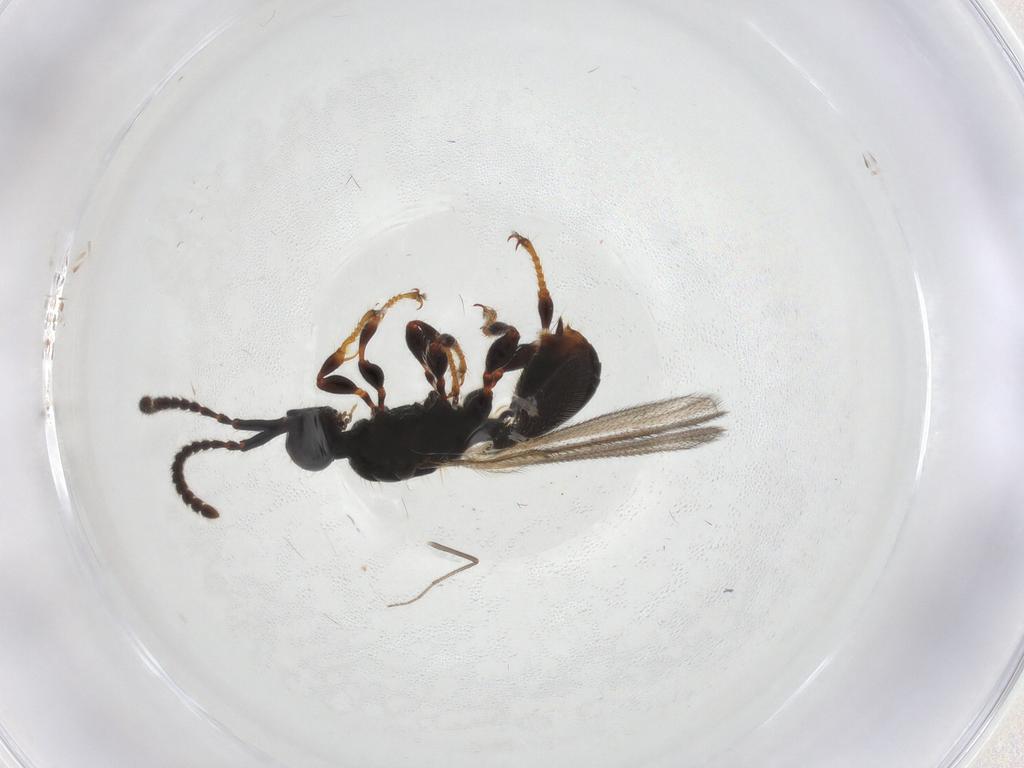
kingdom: Animalia
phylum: Arthropoda
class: Insecta
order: Hymenoptera
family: Diapriidae
